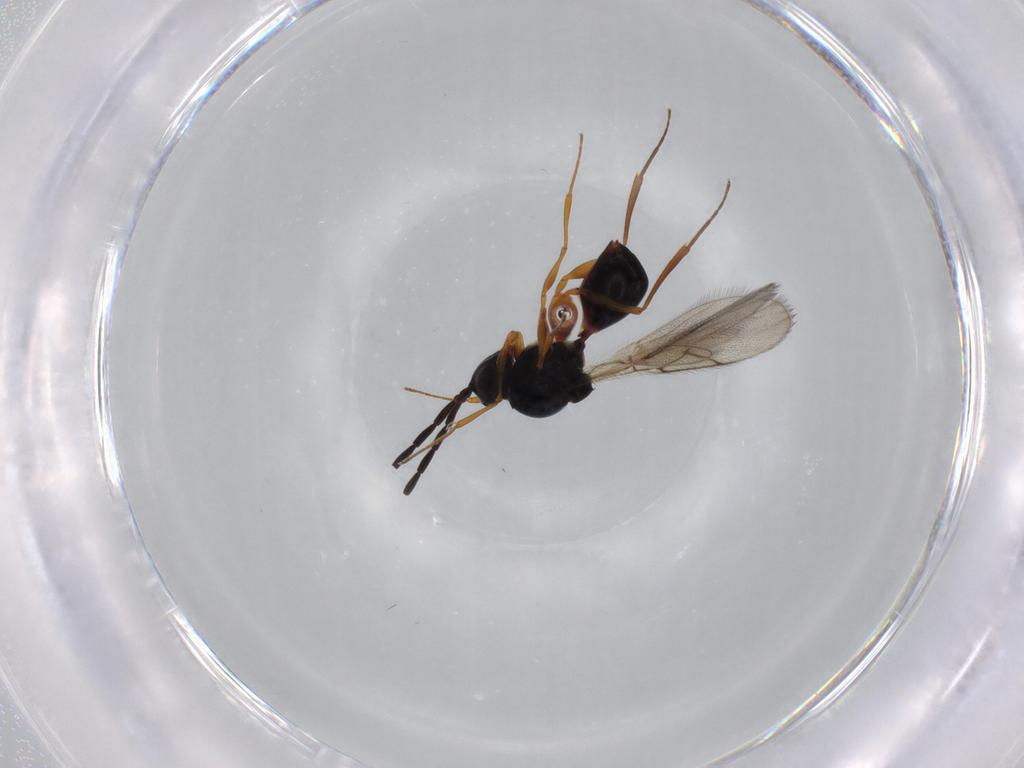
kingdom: Animalia
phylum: Arthropoda
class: Insecta
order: Hymenoptera
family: Figitidae
